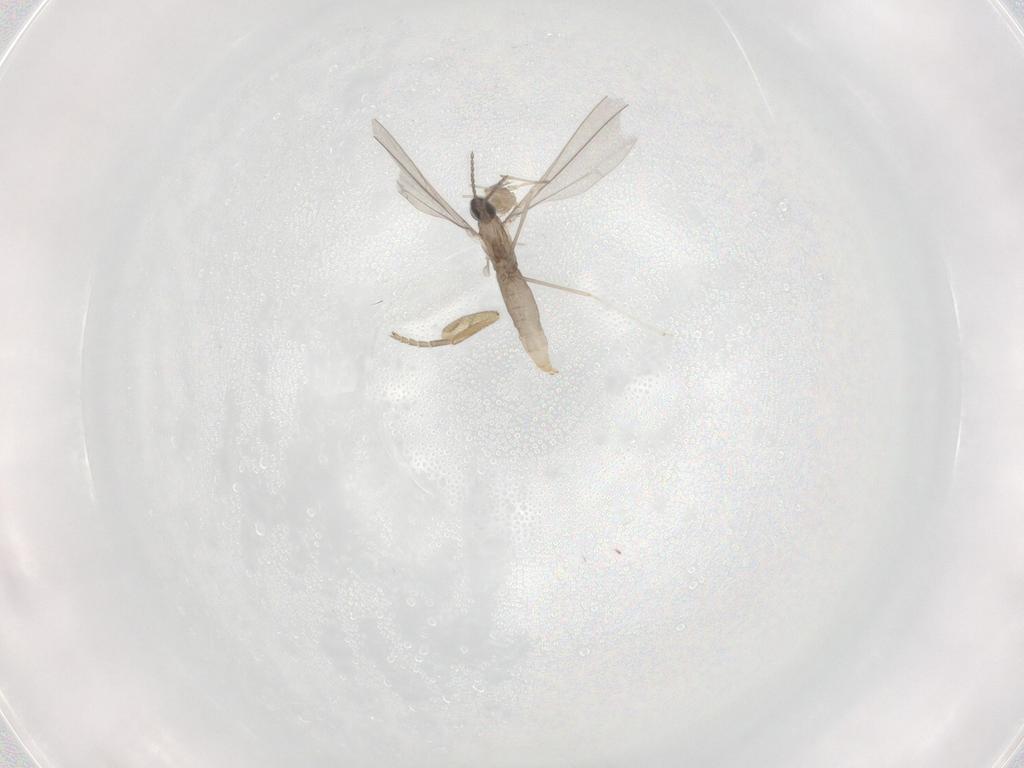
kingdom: Animalia
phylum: Arthropoda
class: Insecta
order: Diptera
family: Cecidomyiidae
